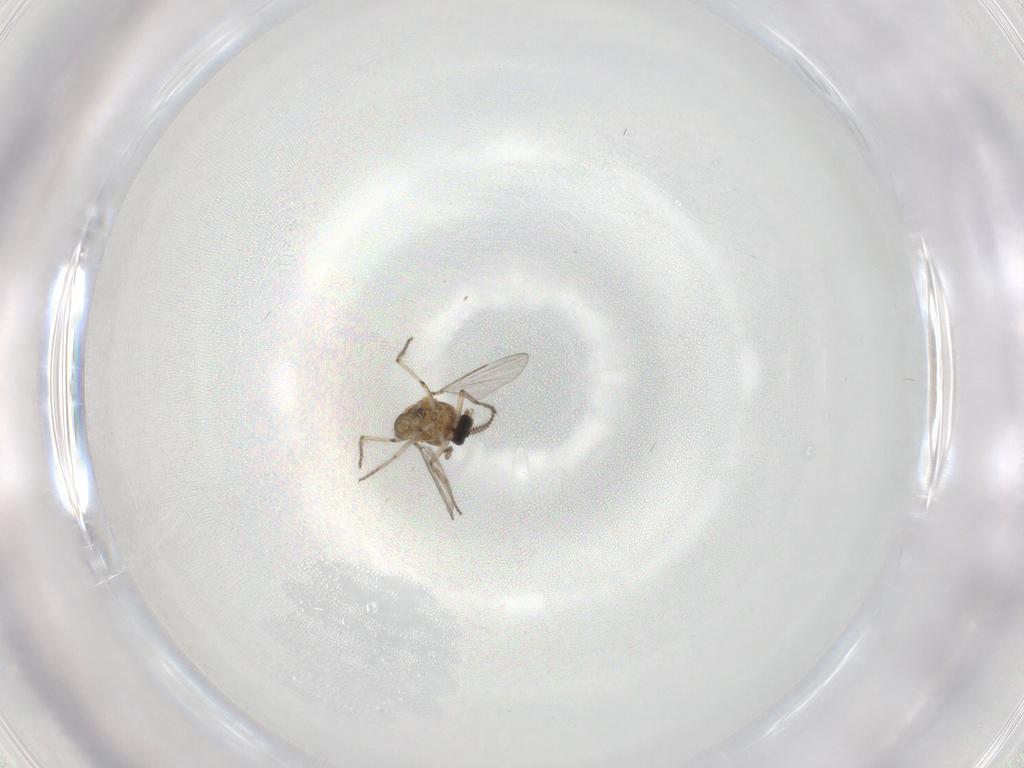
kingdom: Animalia
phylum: Arthropoda
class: Insecta
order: Diptera
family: Ceratopogonidae
